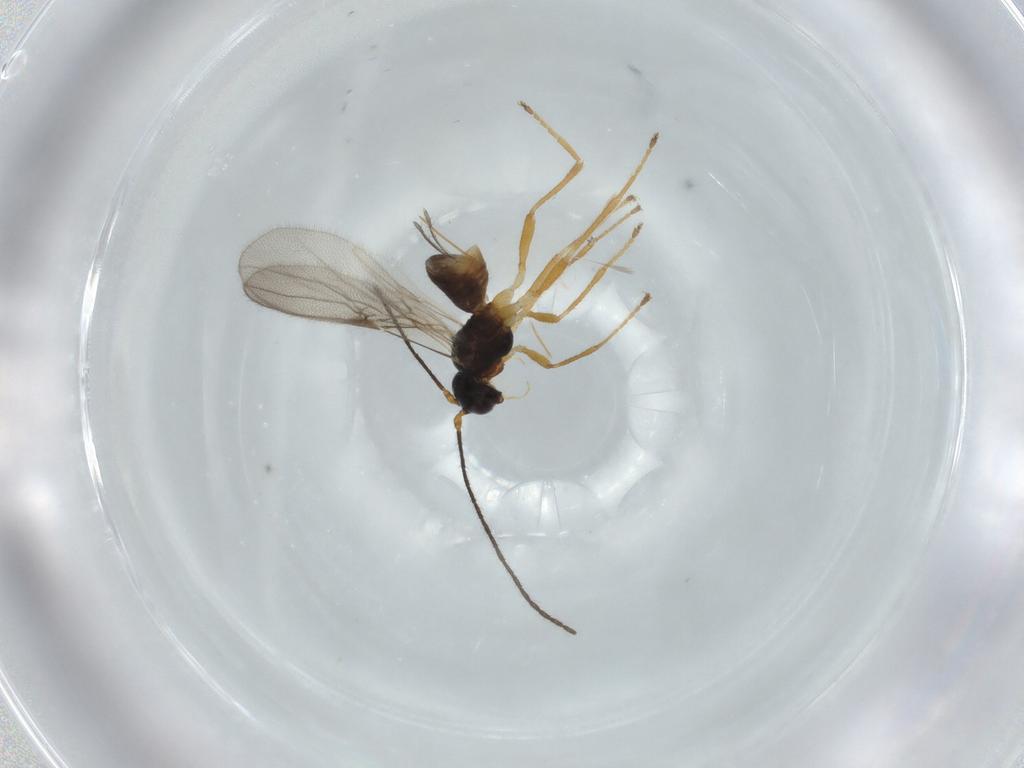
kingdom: Animalia
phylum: Arthropoda
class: Insecta
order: Hymenoptera
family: Braconidae
